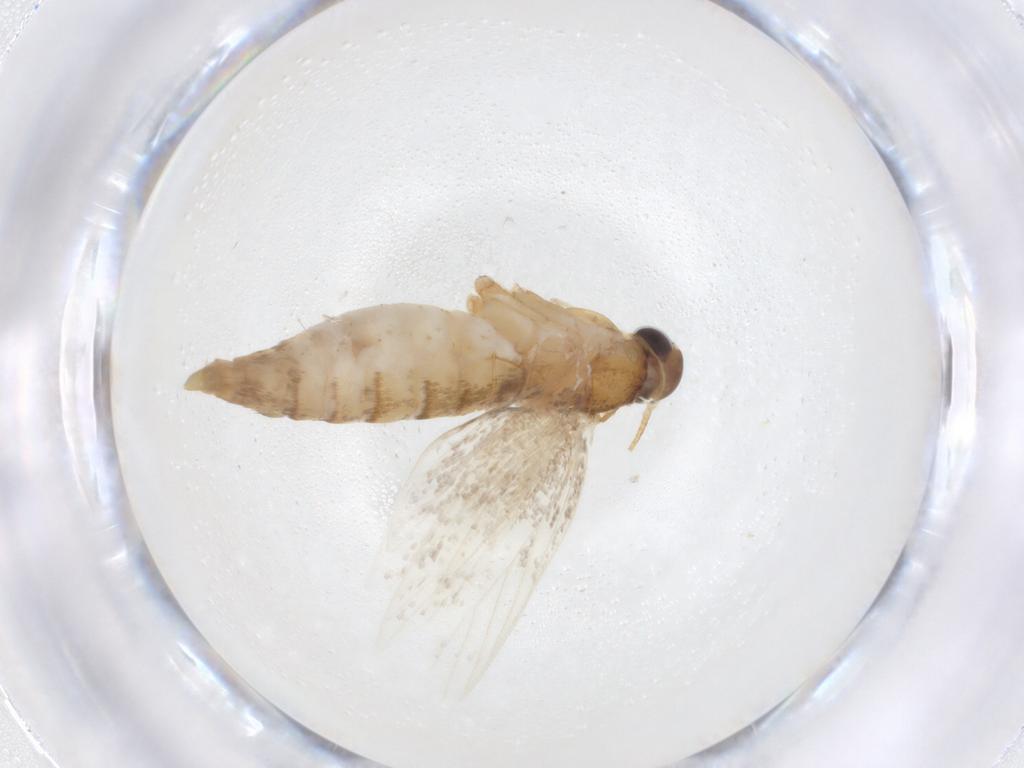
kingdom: Animalia
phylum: Arthropoda
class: Insecta
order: Lepidoptera
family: Oecophoridae
